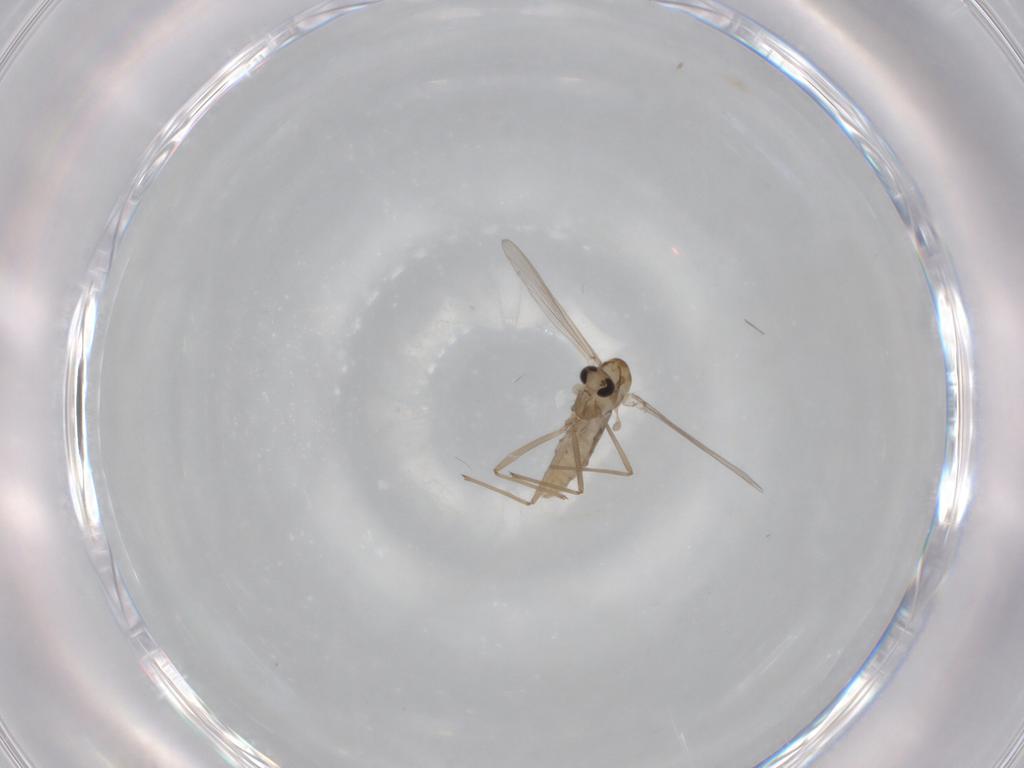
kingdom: Animalia
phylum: Arthropoda
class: Insecta
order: Diptera
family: Chironomidae
